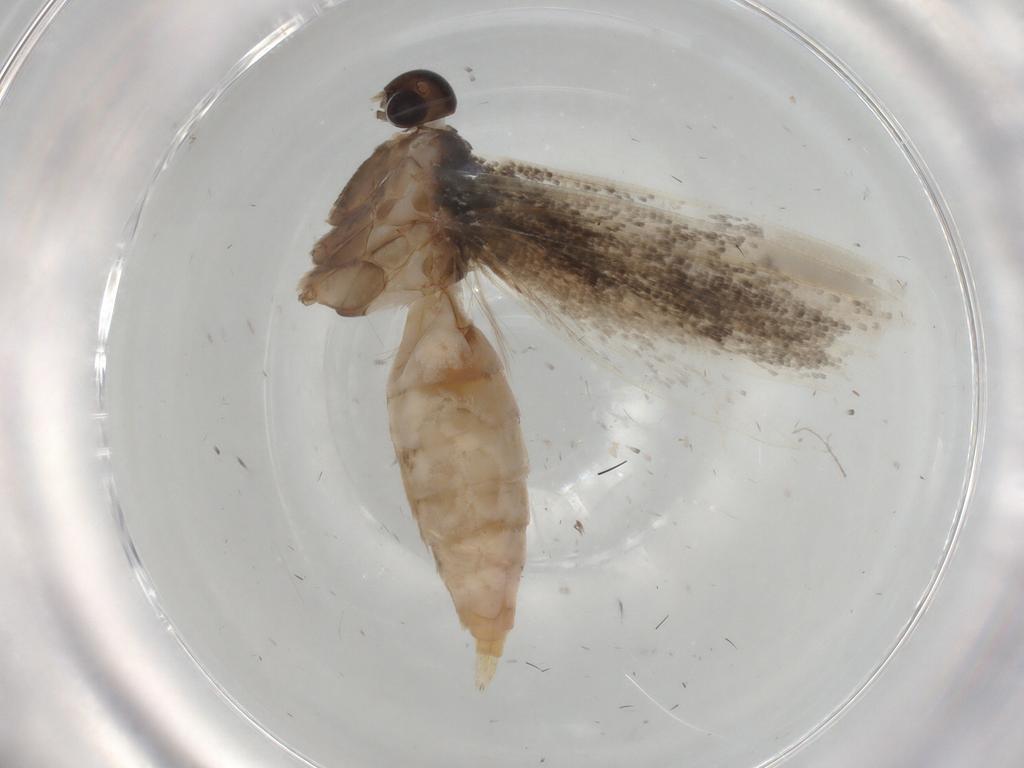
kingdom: Animalia
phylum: Arthropoda
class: Insecta
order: Lepidoptera
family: Gelechiidae
